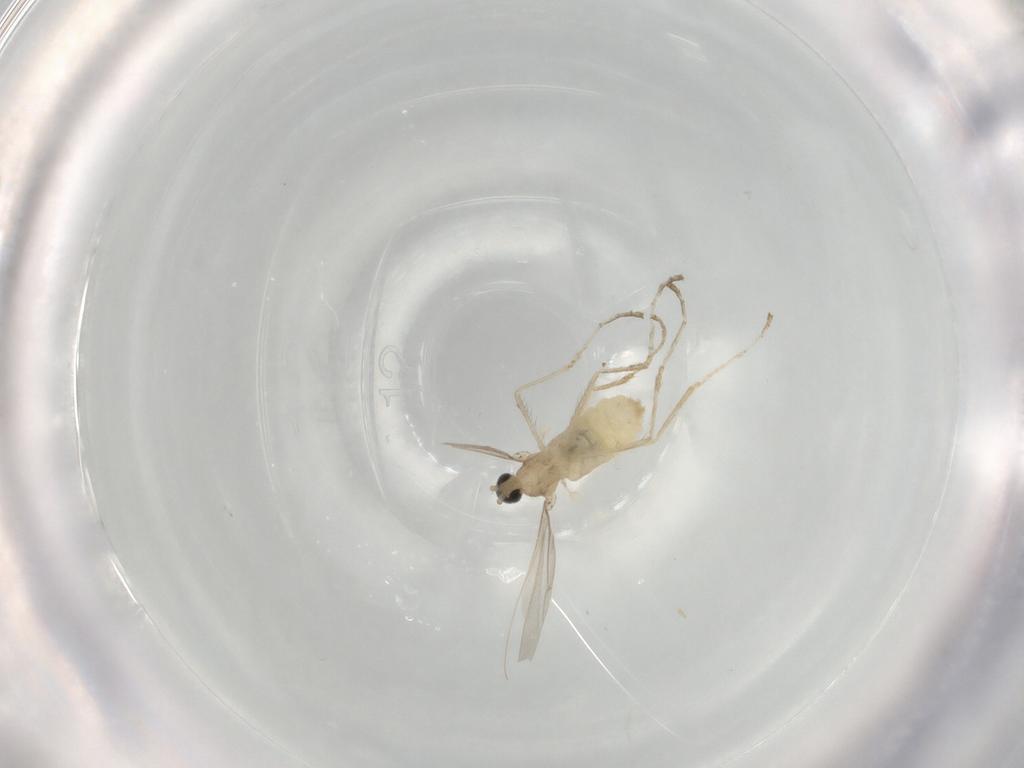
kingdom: Animalia
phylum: Arthropoda
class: Insecta
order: Diptera
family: Cecidomyiidae
